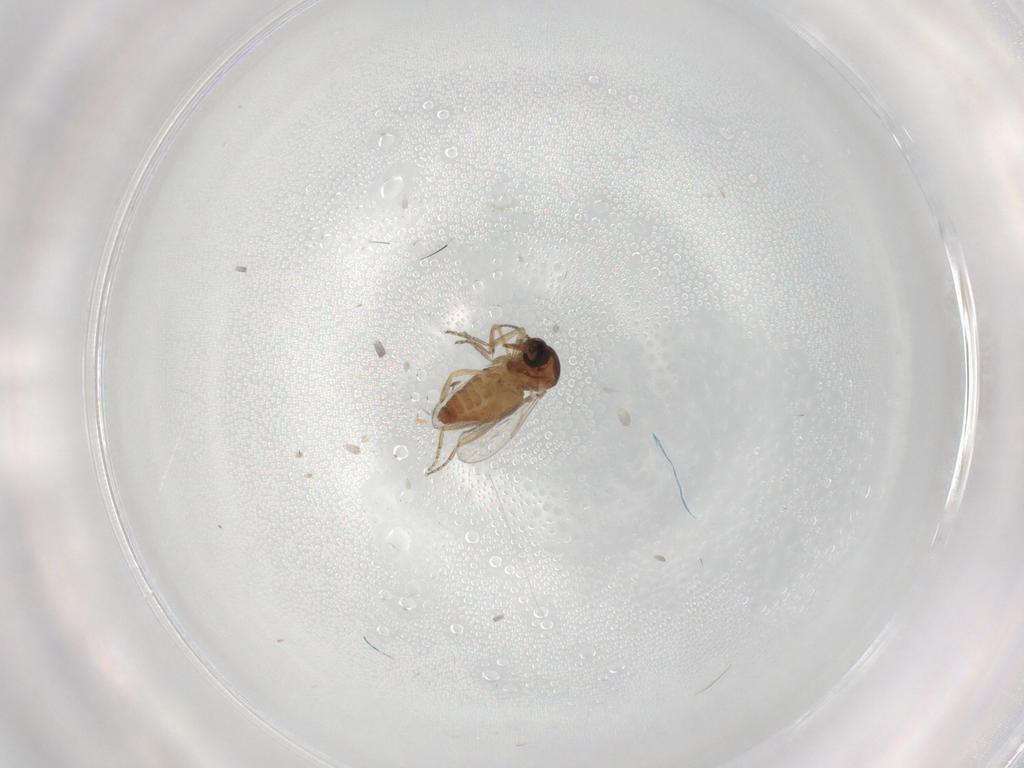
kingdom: Animalia
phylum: Arthropoda
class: Insecta
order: Diptera
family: Ceratopogonidae
